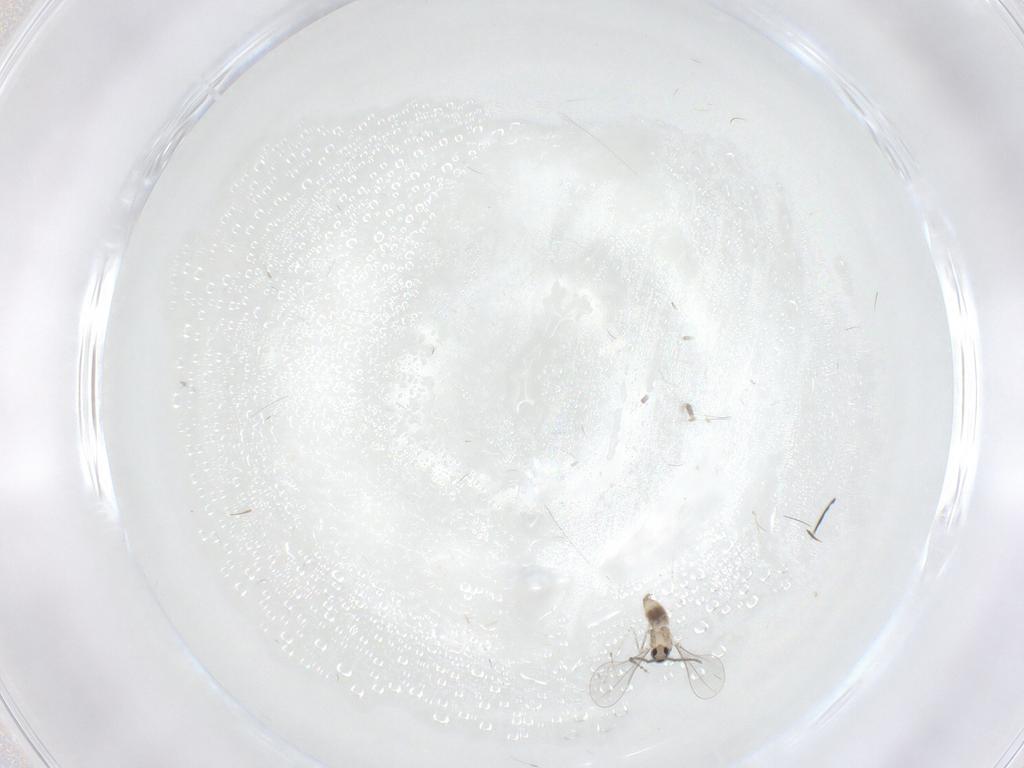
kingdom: Animalia
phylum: Arthropoda
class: Insecta
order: Diptera
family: Cecidomyiidae
